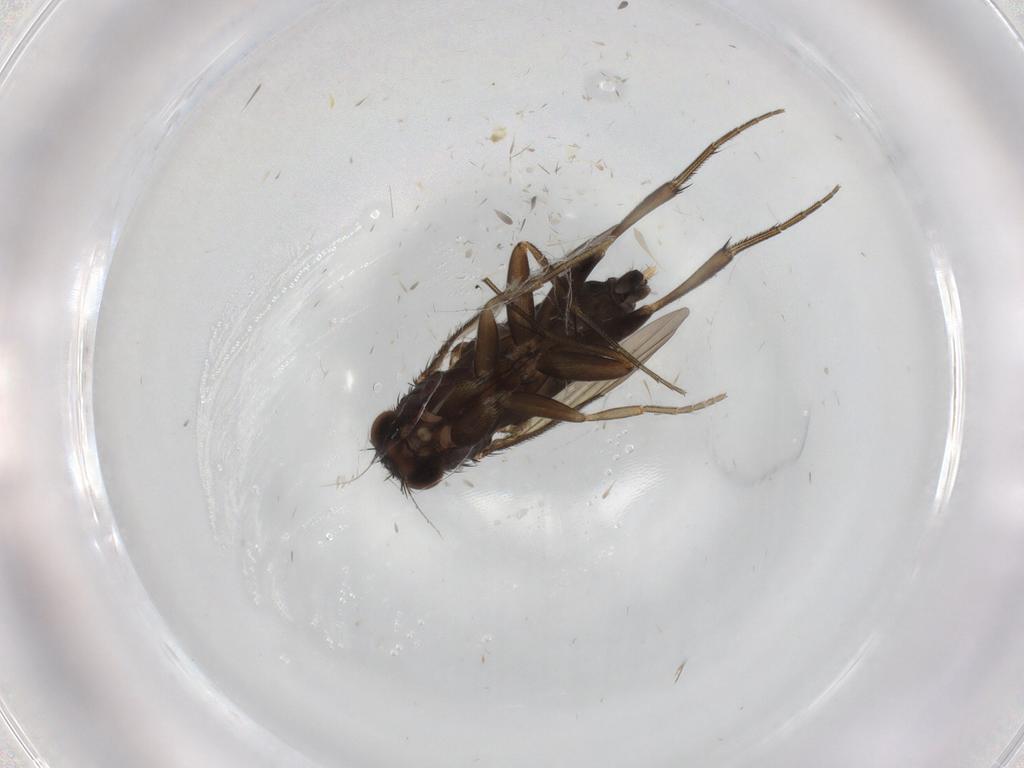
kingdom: Animalia
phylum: Arthropoda
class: Insecta
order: Diptera
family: Phoridae
